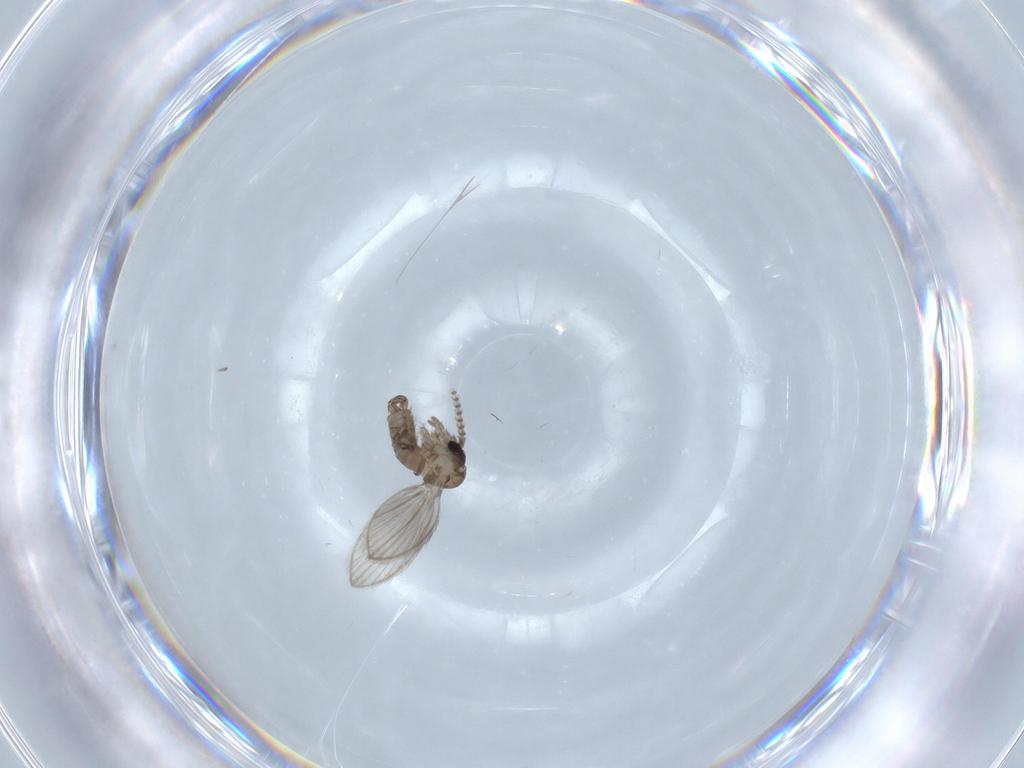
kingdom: Animalia
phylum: Arthropoda
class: Insecta
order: Diptera
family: Psychodidae
